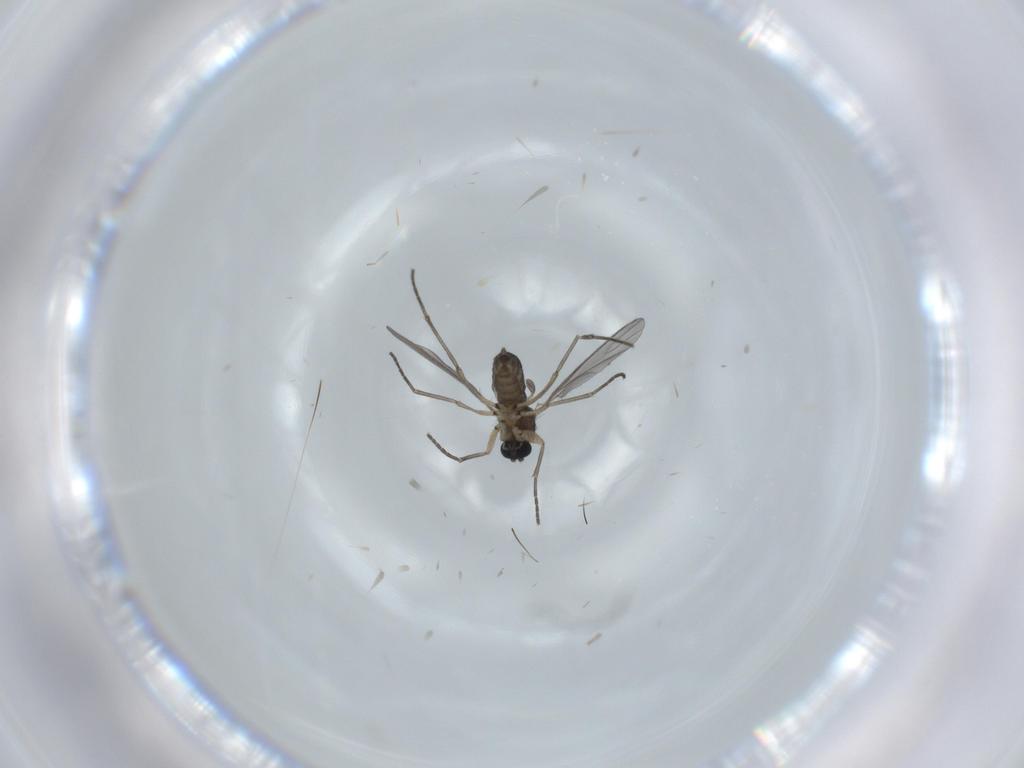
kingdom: Animalia
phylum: Arthropoda
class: Insecta
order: Diptera
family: Sciaridae
